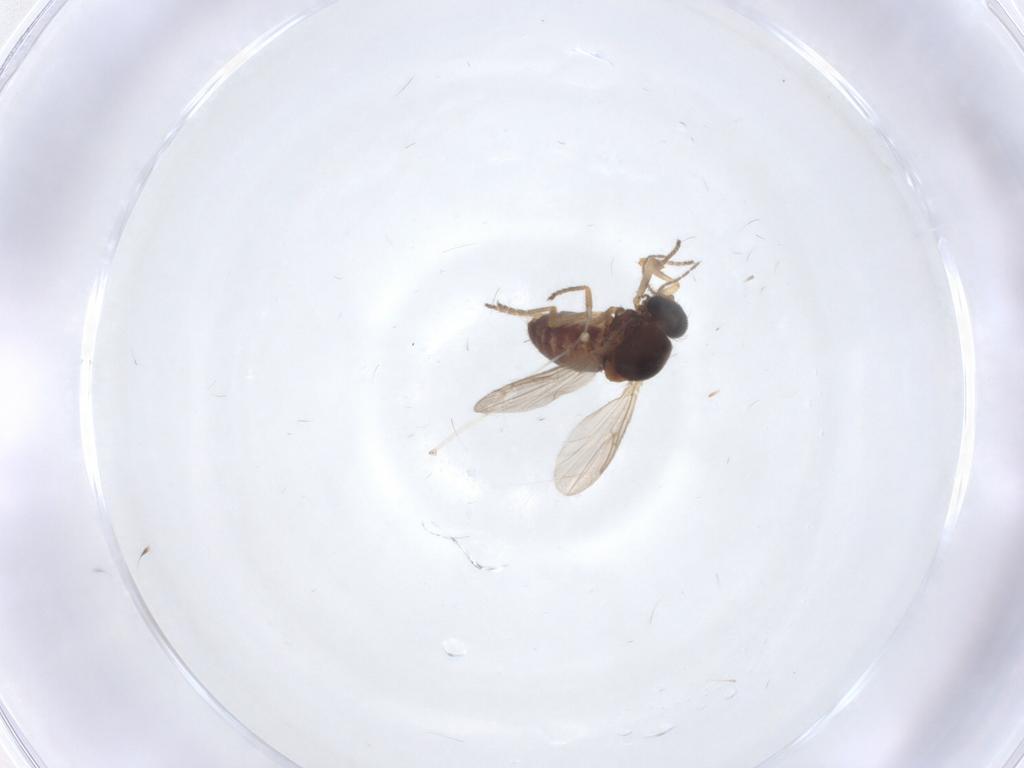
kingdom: Animalia
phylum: Arthropoda
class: Insecta
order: Diptera
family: Ceratopogonidae
